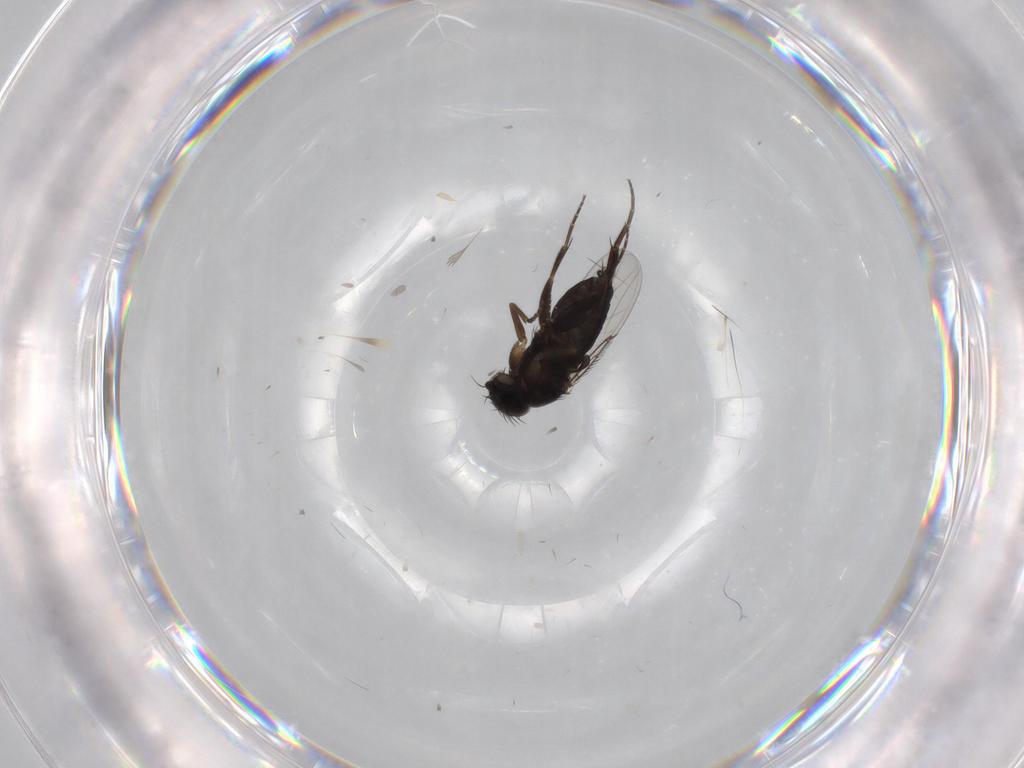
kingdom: Animalia
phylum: Arthropoda
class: Insecta
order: Diptera
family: Phoridae
